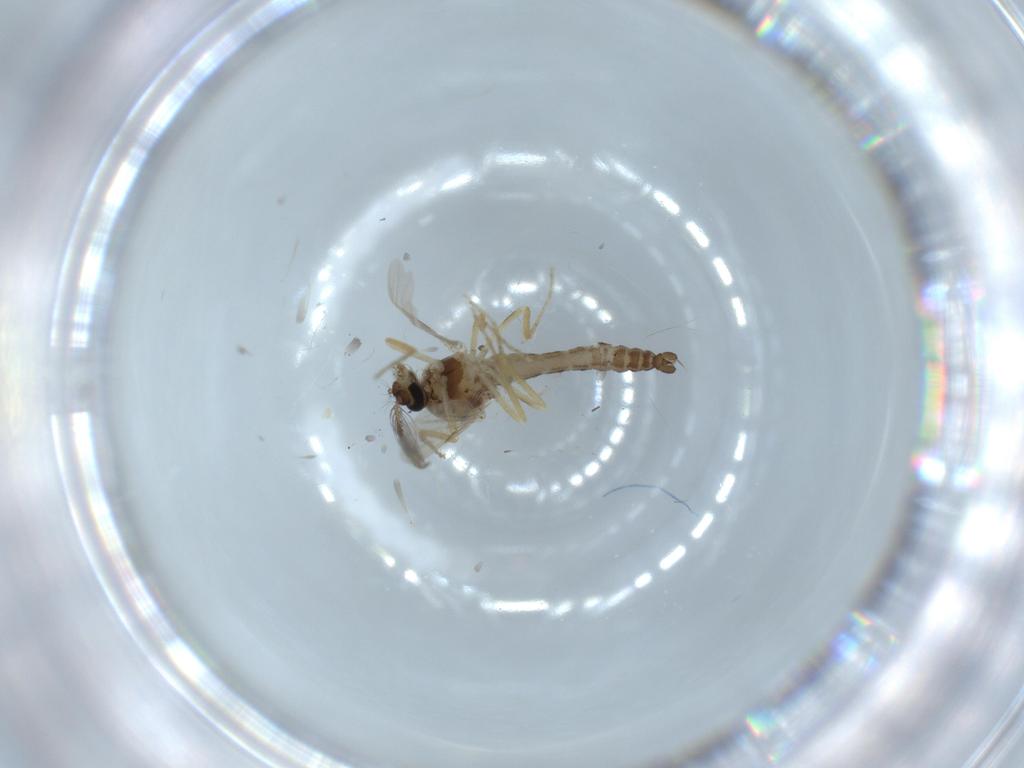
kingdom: Animalia
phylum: Arthropoda
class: Insecta
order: Diptera
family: Ceratopogonidae
